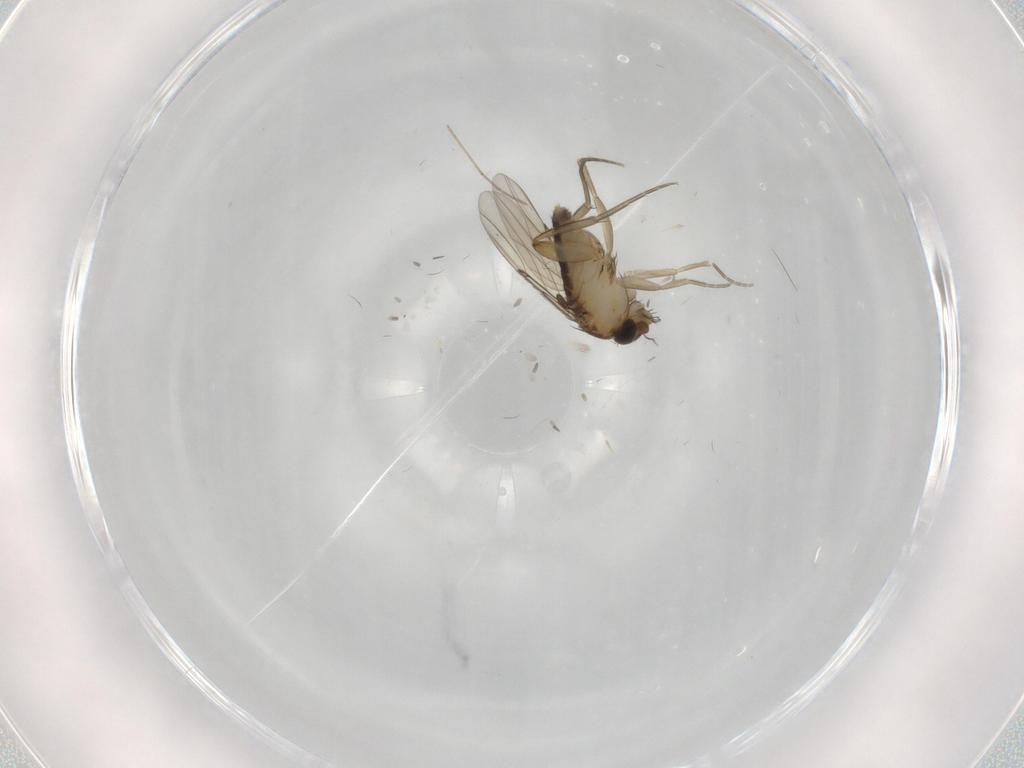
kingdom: Animalia
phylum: Arthropoda
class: Insecta
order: Diptera
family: Phoridae
